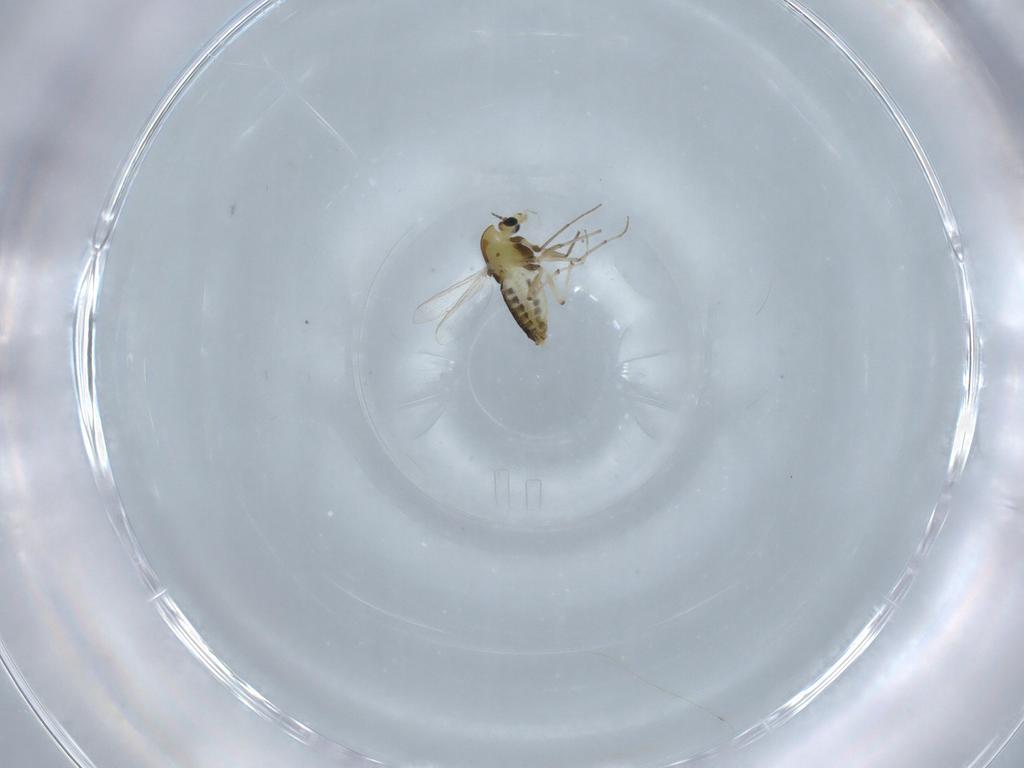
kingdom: Animalia
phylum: Arthropoda
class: Insecta
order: Diptera
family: Chironomidae
